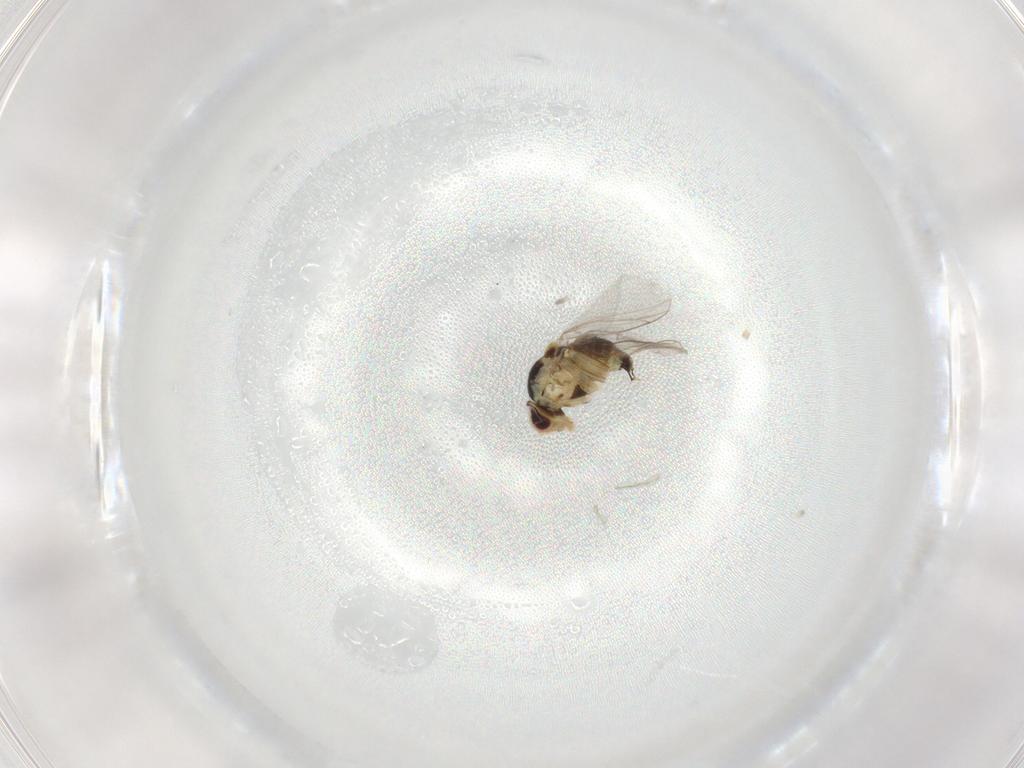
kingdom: Animalia
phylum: Arthropoda
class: Insecta
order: Diptera
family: Agromyzidae
